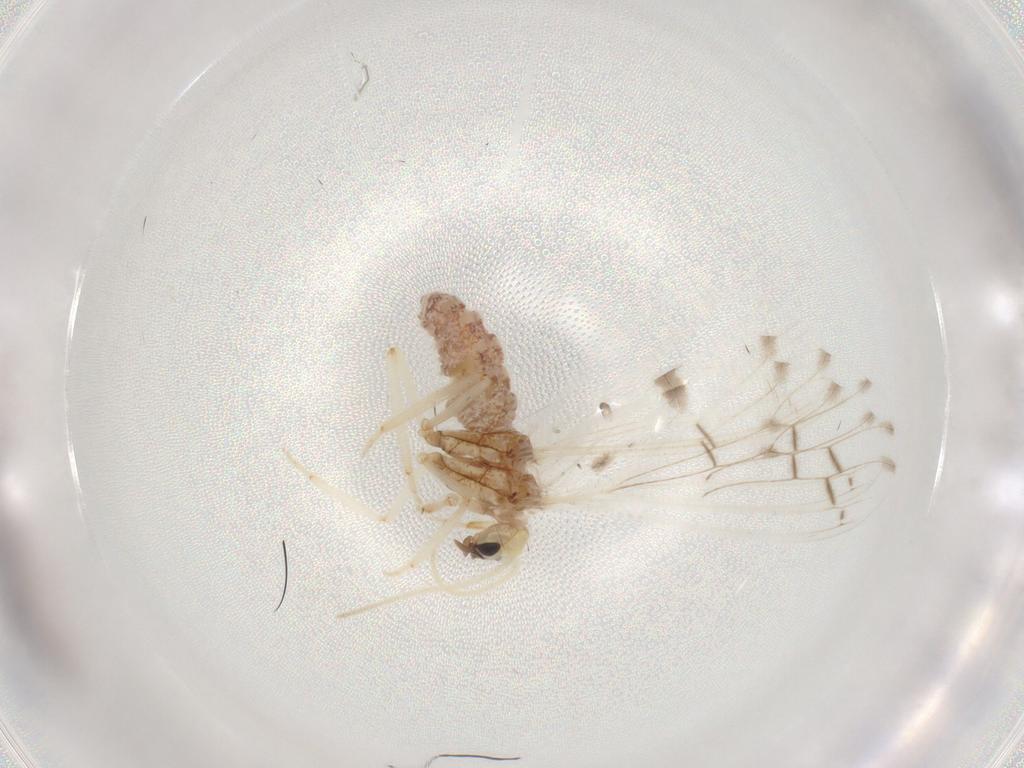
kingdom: Animalia
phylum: Arthropoda
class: Insecta
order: Neuroptera
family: Coniopterygidae
